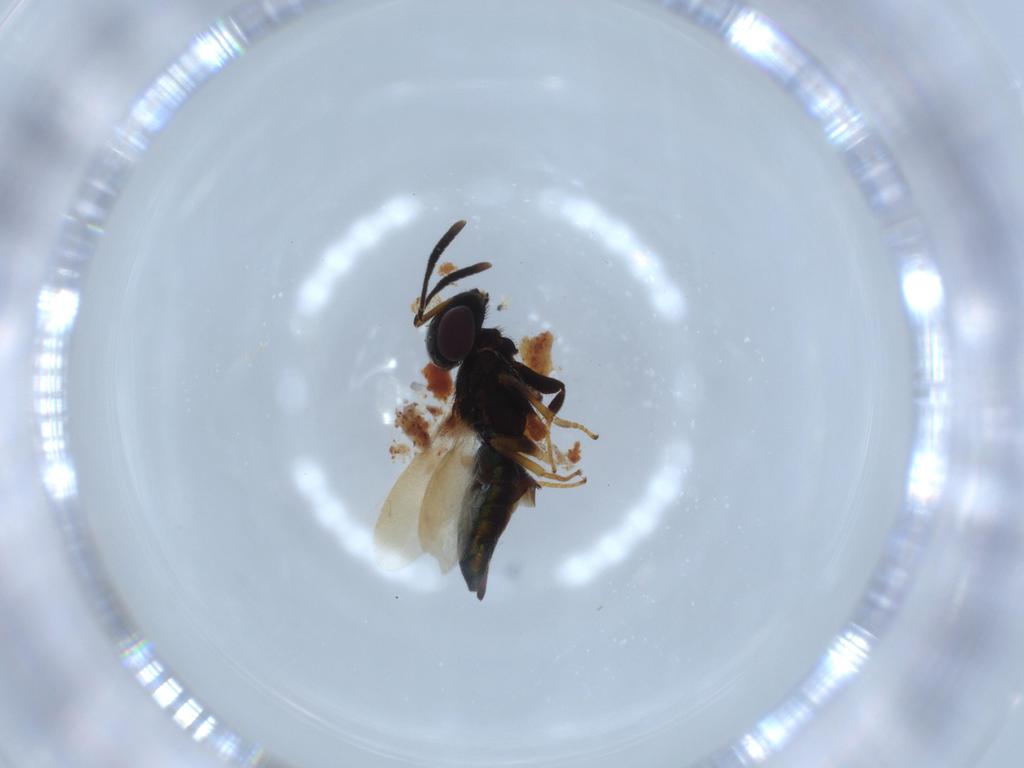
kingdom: Animalia
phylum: Arthropoda
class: Insecta
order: Hymenoptera
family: Eupelmidae
